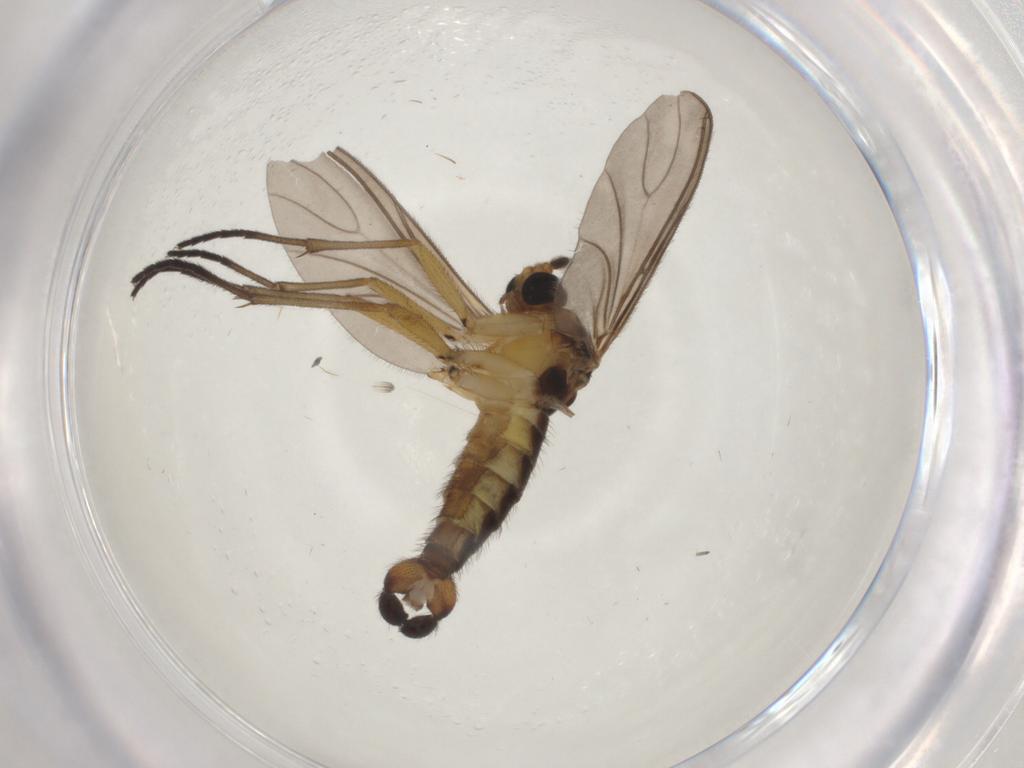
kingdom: Animalia
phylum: Arthropoda
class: Insecta
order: Diptera
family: Sciaridae
